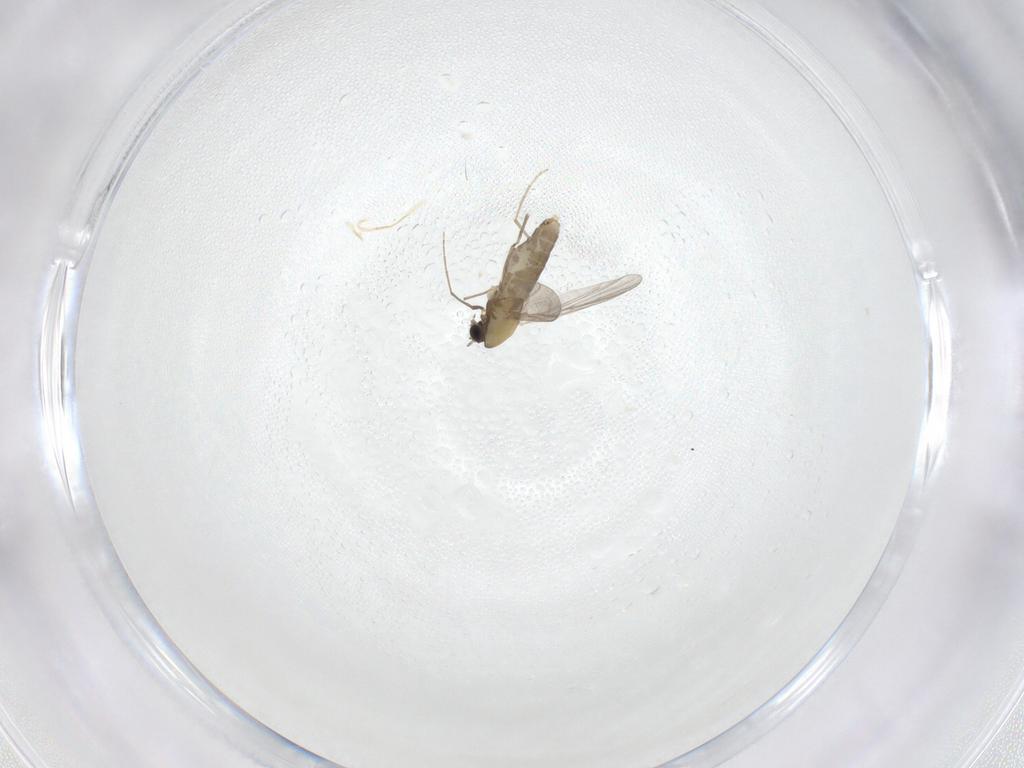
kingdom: Animalia
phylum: Arthropoda
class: Insecta
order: Diptera
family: Chironomidae
